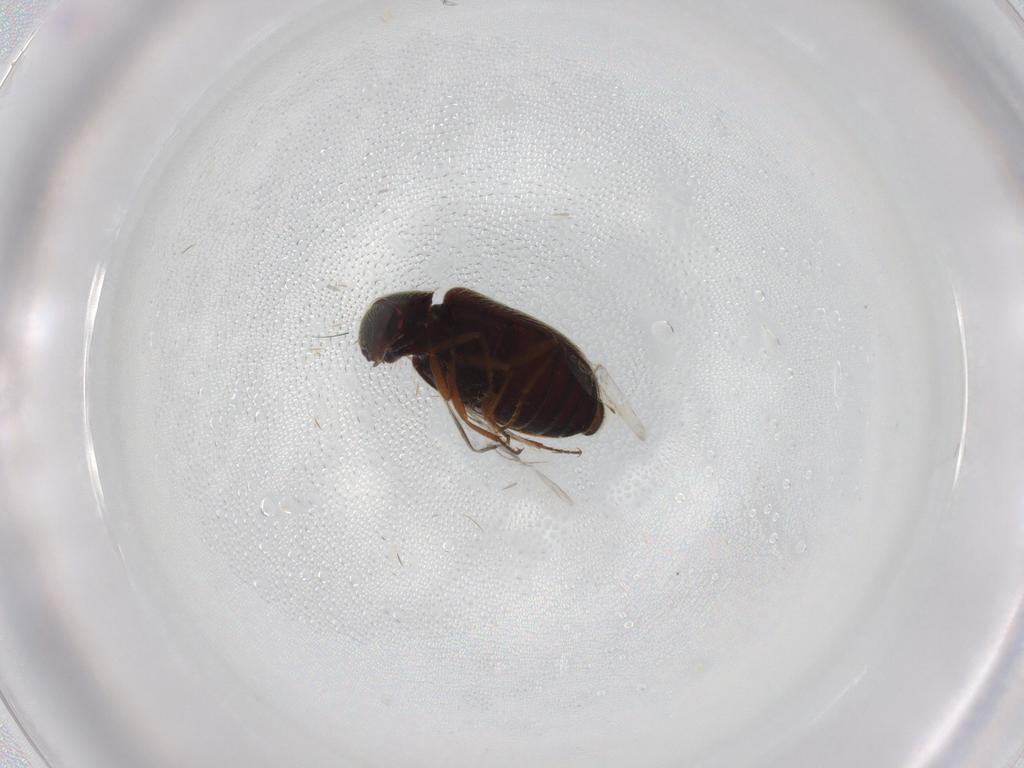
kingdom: Animalia
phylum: Arthropoda
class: Insecta
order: Coleoptera
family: Rhadalidae
